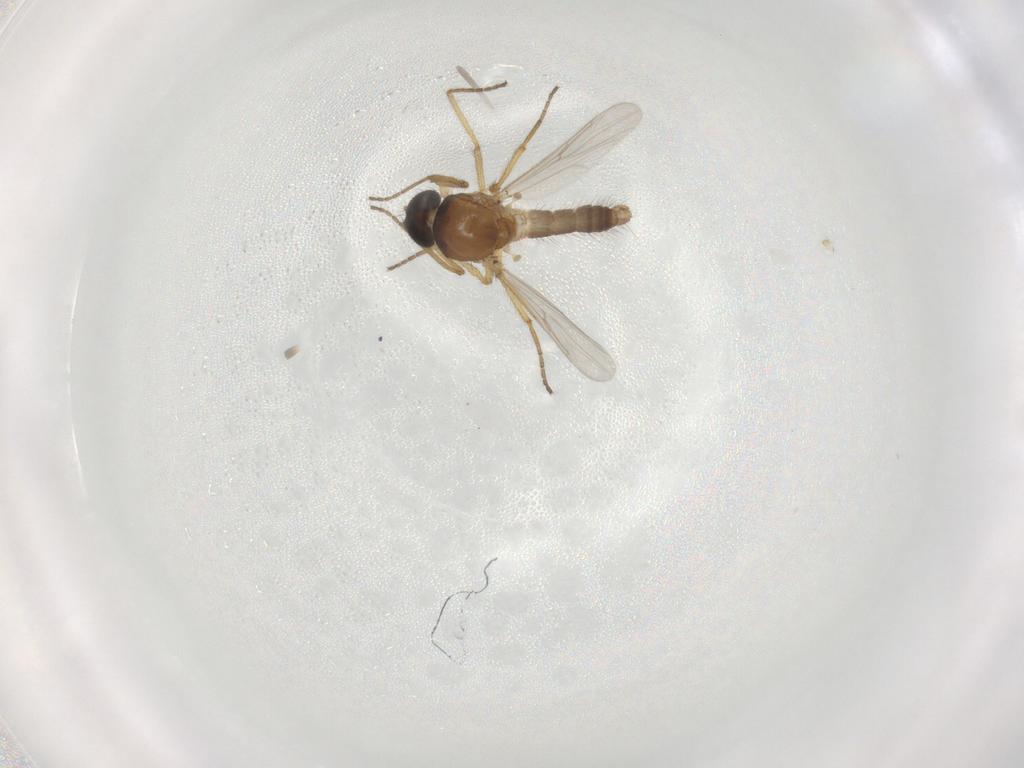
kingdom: Animalia
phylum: Arthropoda
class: Insecta
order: Diptera
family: Ceratopogonidae
